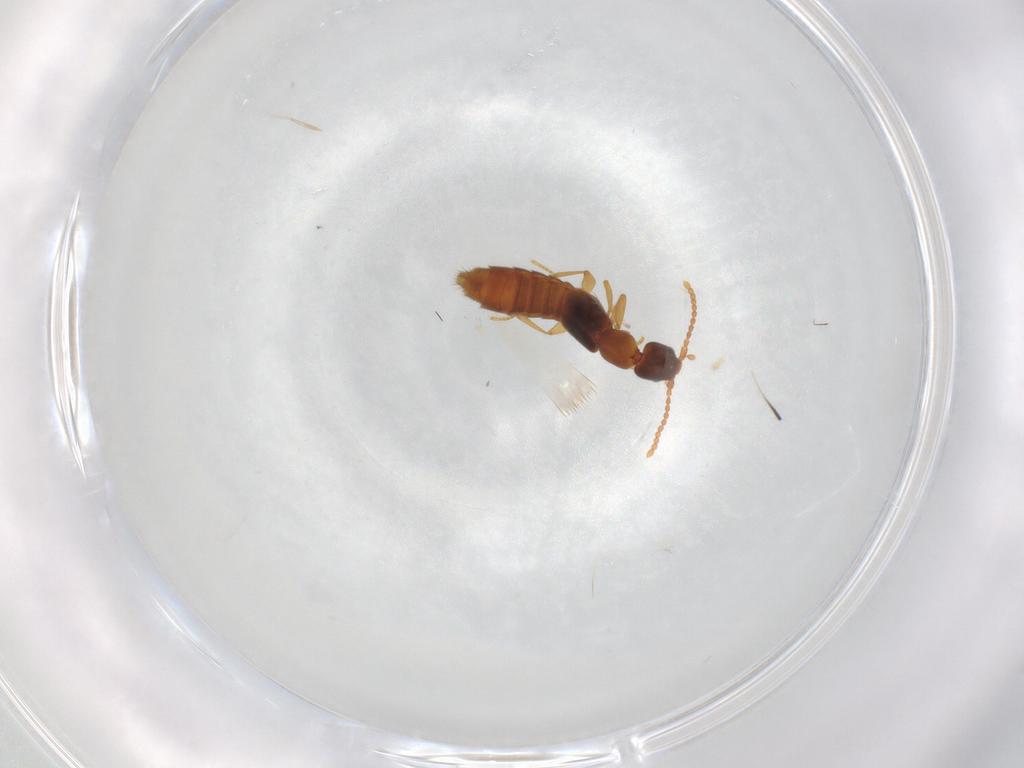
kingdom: Animalia
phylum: Arthropoda
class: Insecta
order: Coleoptera
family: Staphylinidae
